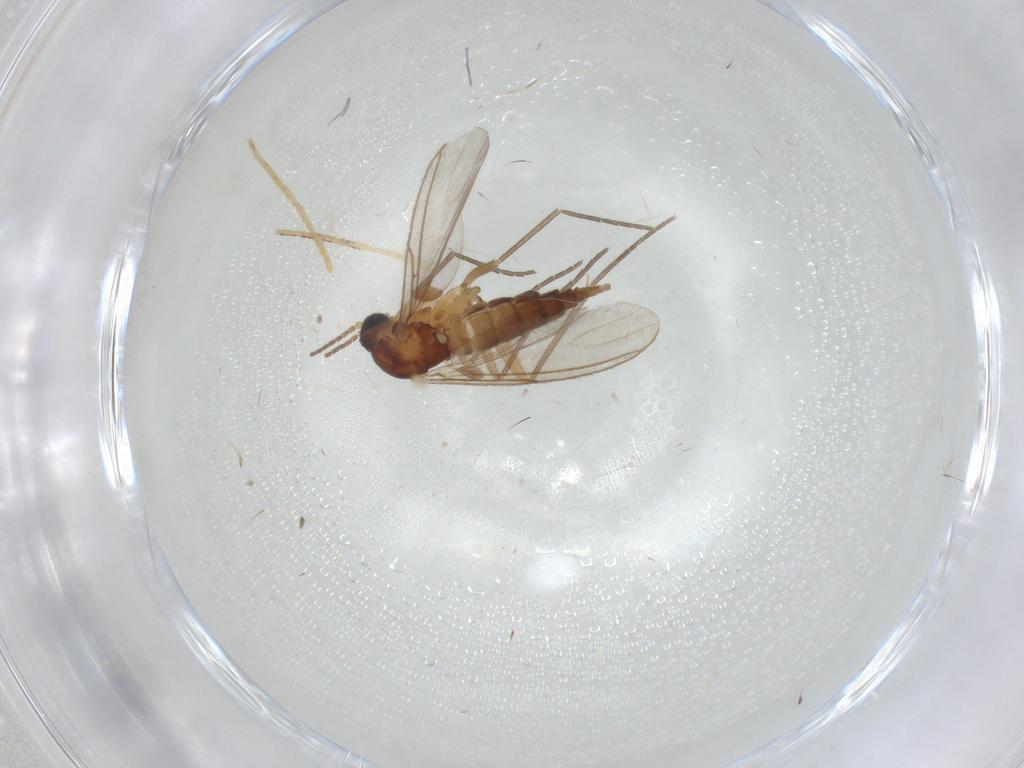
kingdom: Animalia
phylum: Arthropoda
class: Insecta
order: Diptera
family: Sciaridae
